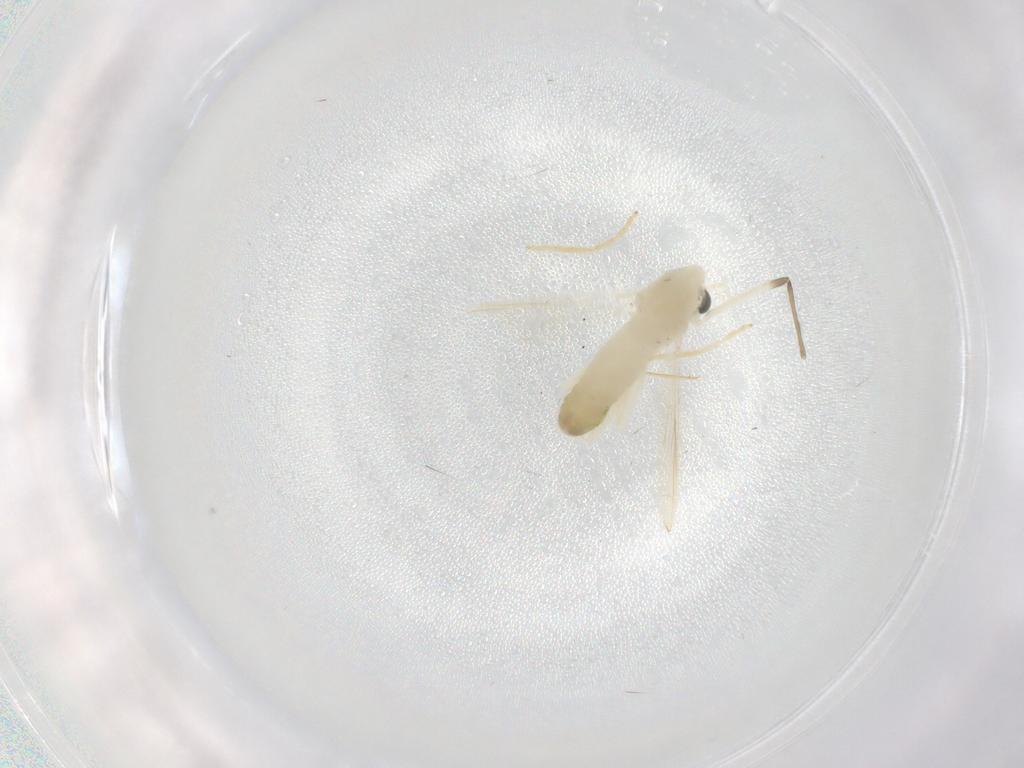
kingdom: Animalia
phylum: Arthropoda
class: Insecta
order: Diptera
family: Chironomidae
